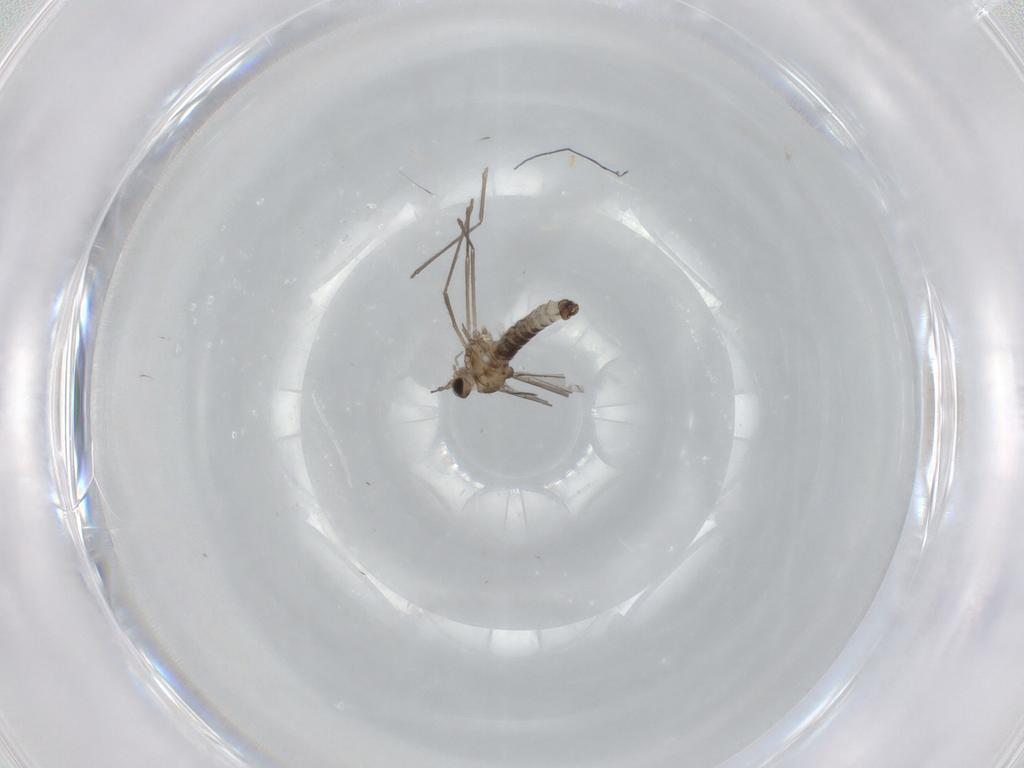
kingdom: Animalia
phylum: Arthropoda
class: Insecta
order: Diptera
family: Cecidomyiidae
